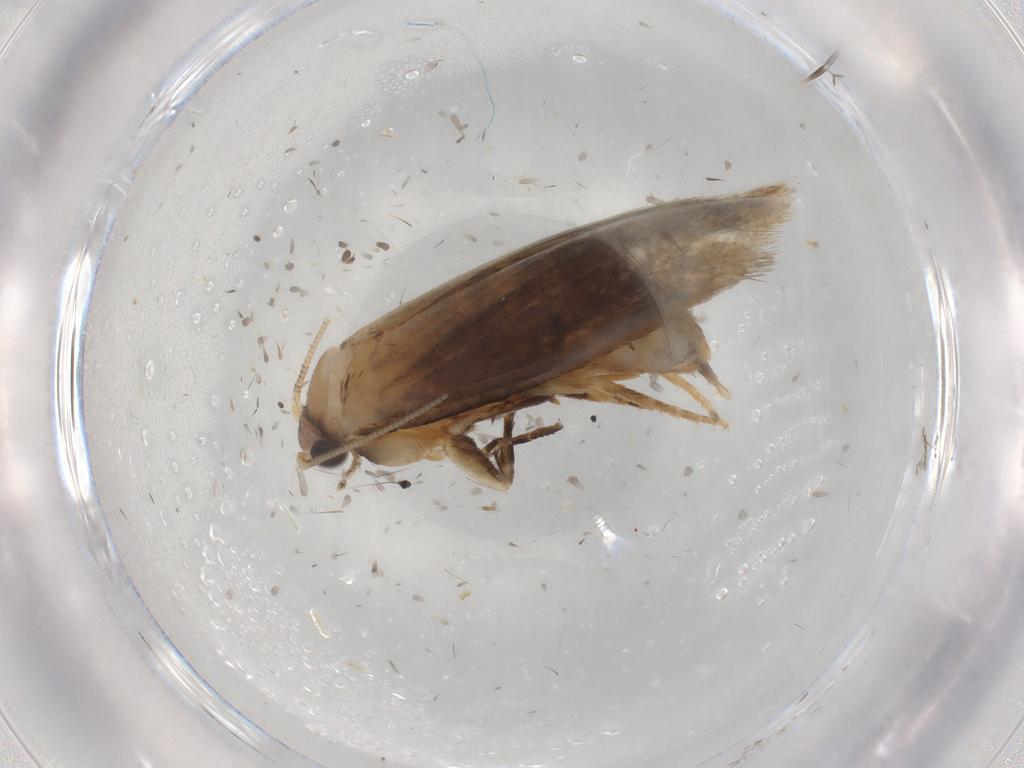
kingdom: Animalia
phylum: Arthropoda
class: Insecta
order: Lepidoptera
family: Tineidae
